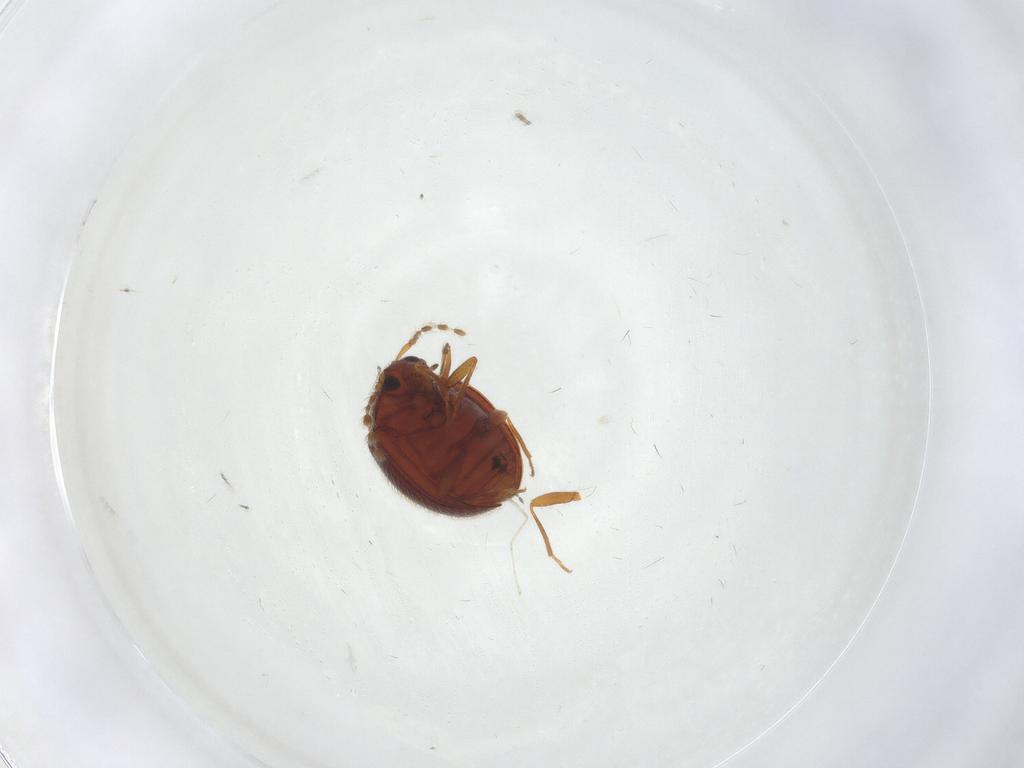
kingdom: Animalia
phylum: Arthropoda
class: Insecta
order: Coleoptera
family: Anamorphidae
